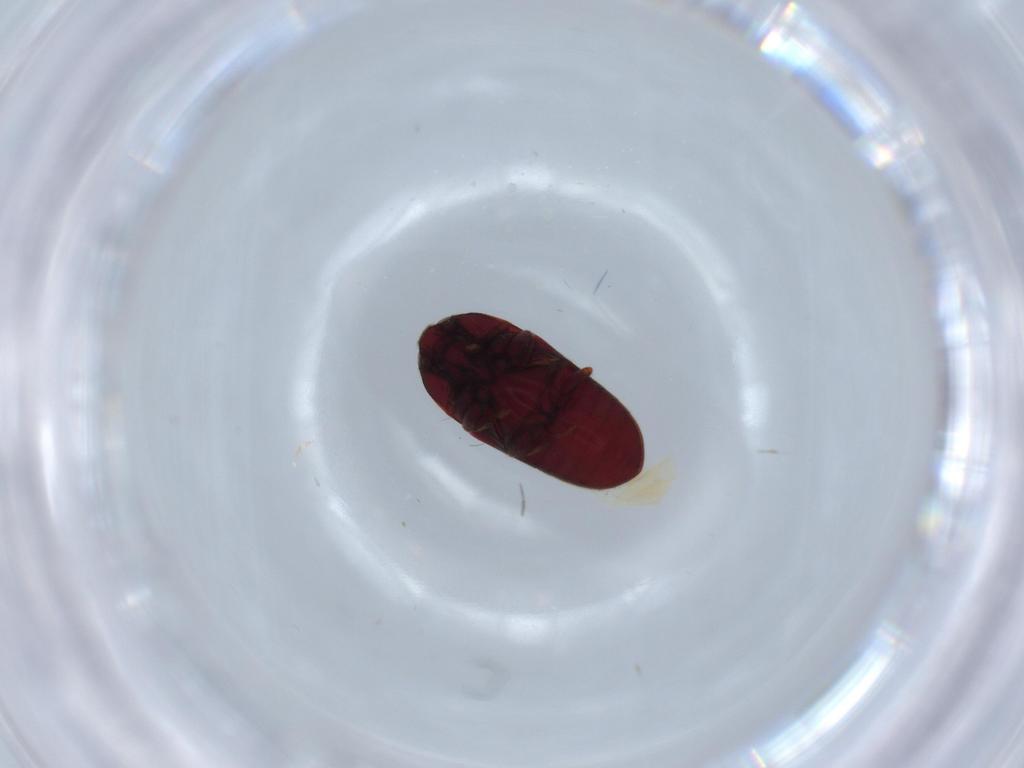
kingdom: Animalia
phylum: Arthropoda
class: Insecta
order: Coleoptera
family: Throscidae
